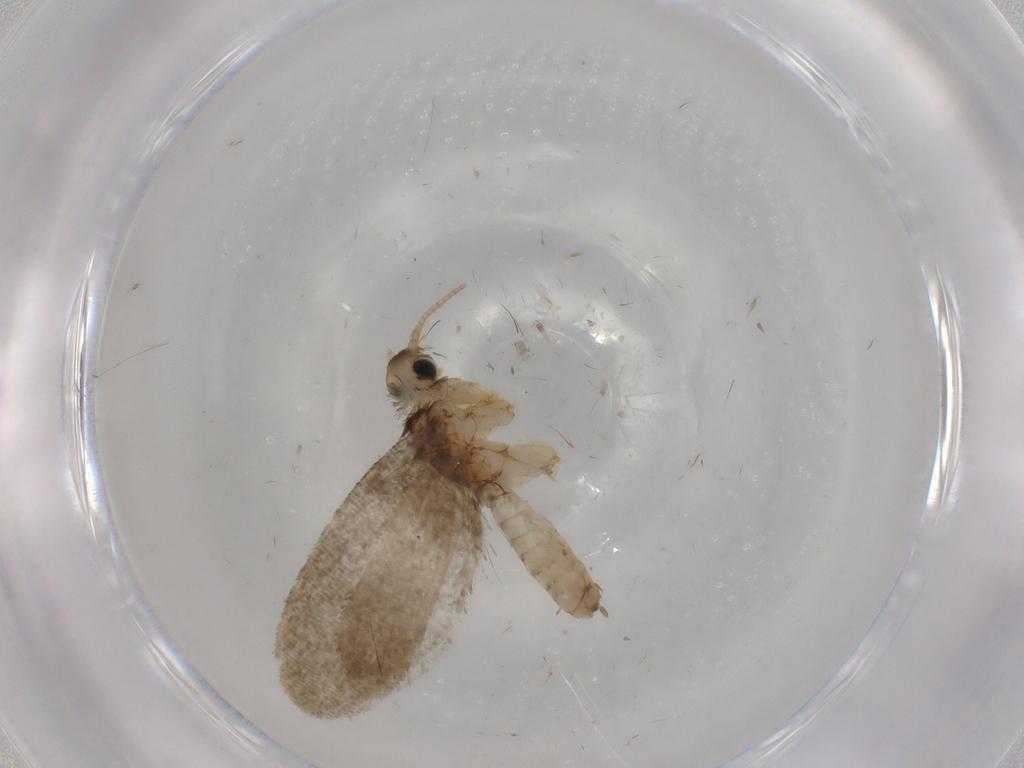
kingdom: Animalia
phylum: Arthropoda
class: Insecta
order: Lepidoptera
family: Psychidae
